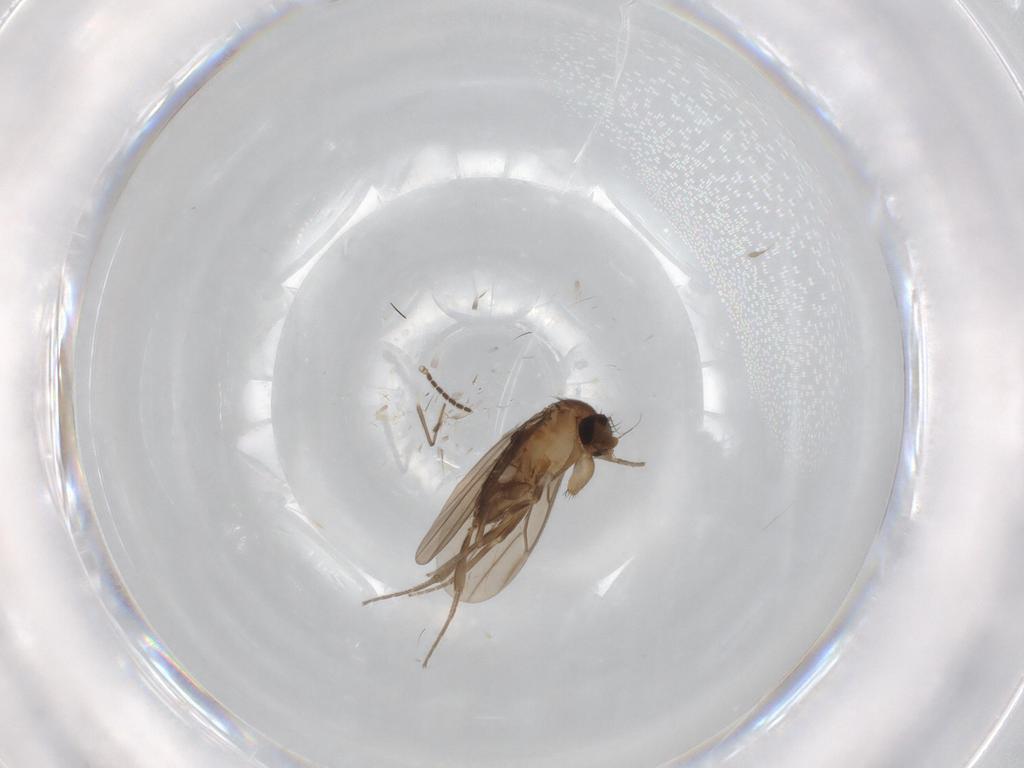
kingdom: Animalia
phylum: Arthropoda
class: Insecta
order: Diptera
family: Chironomidae
